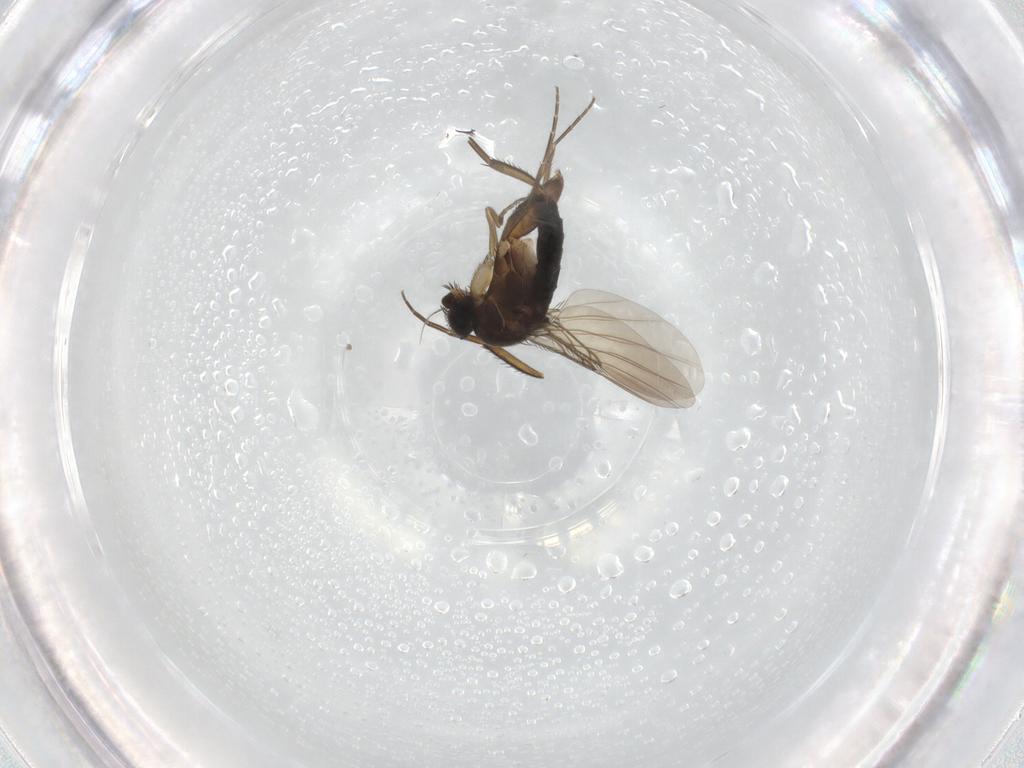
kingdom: Animalia
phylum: Arthropoda
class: Insecta
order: Diptera
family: Phoridae
